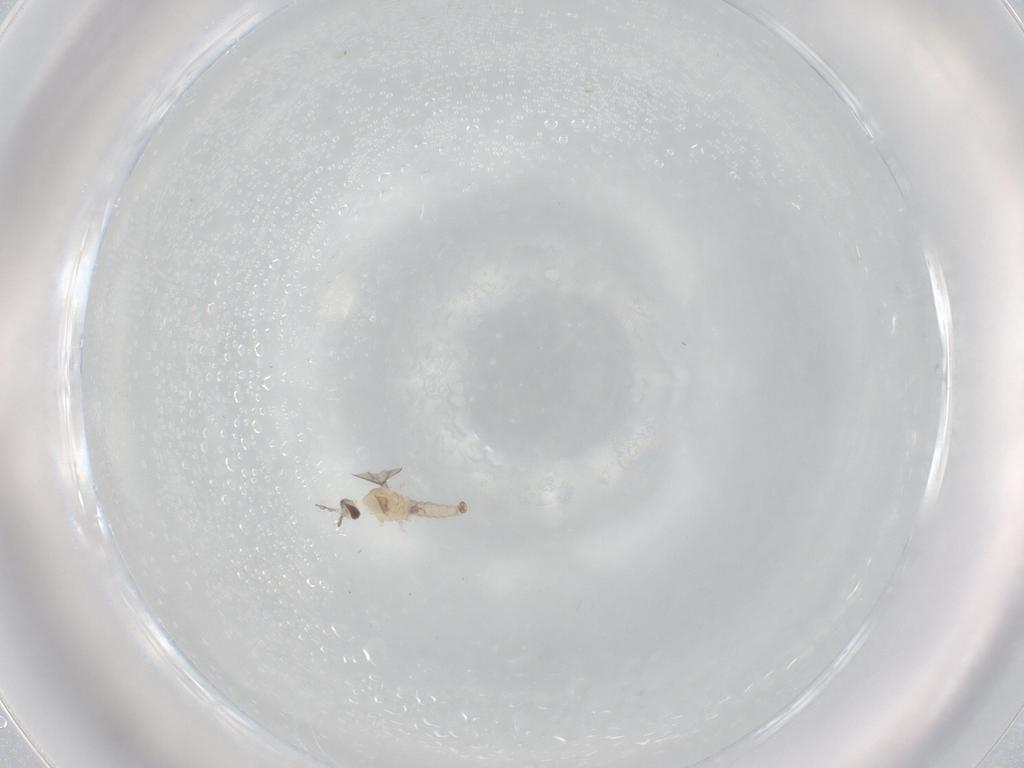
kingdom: Animalia
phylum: Arthropoda
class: Insecta
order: Diptera
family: Cecidomyiidae
